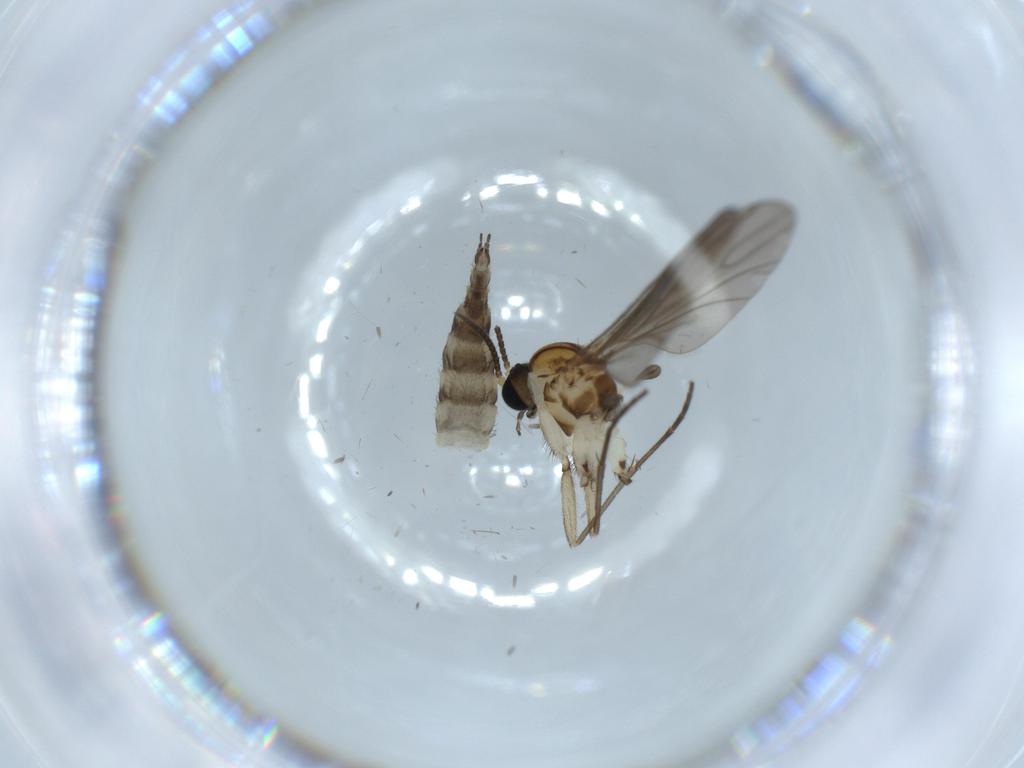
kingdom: Animalia
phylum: Arthropoda
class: Insecta
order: Diptera
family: Sciaridae
